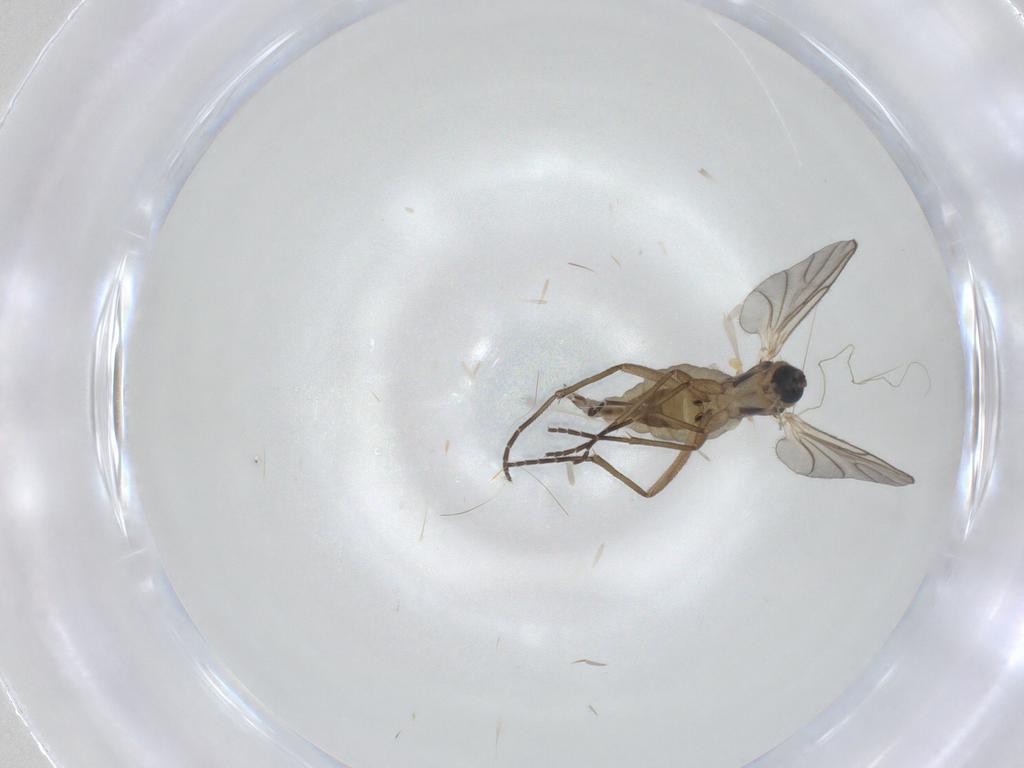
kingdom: Animalia
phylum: Arthropoda
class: Insecta
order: Diptera
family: Chironomidae
